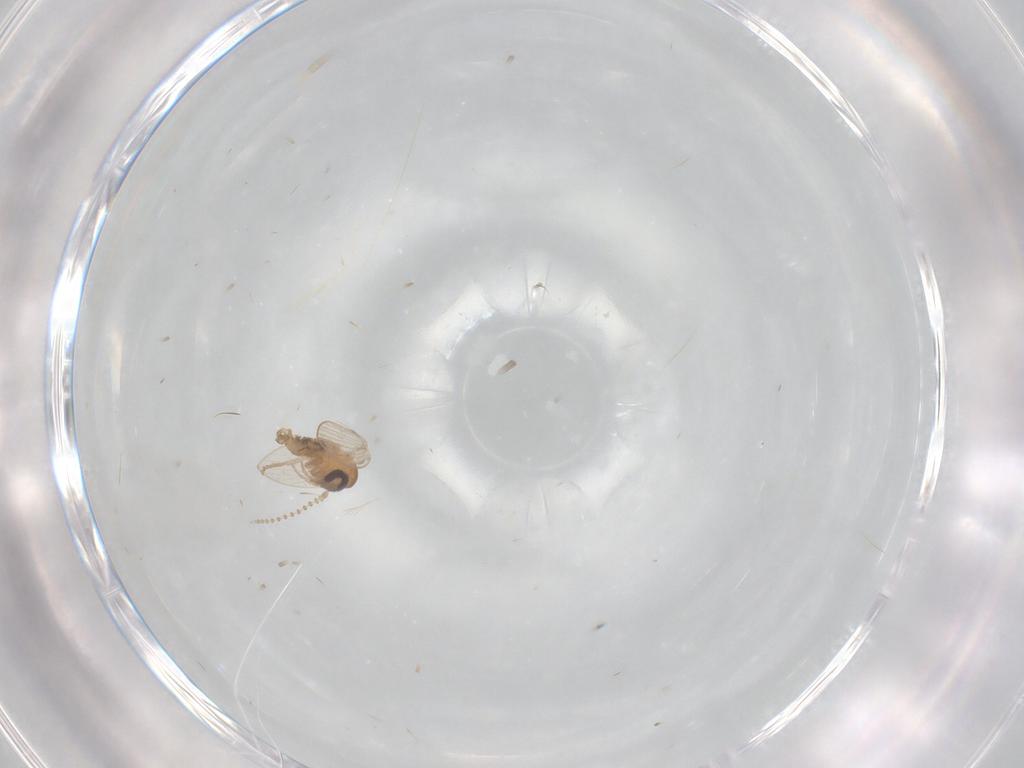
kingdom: Animalia
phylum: Arthropoda
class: Insecta
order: Diptera
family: Psychodidae
